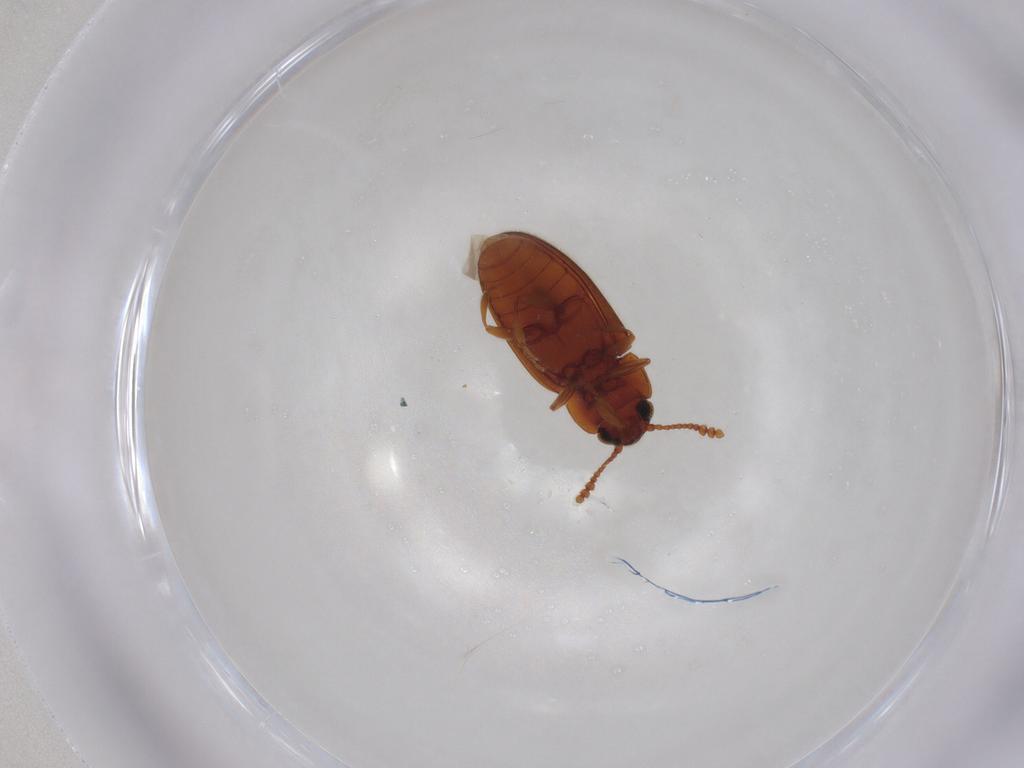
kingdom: Animalia
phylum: Arthropoda
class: Insecta
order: Coleoptera
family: Erotylidae
